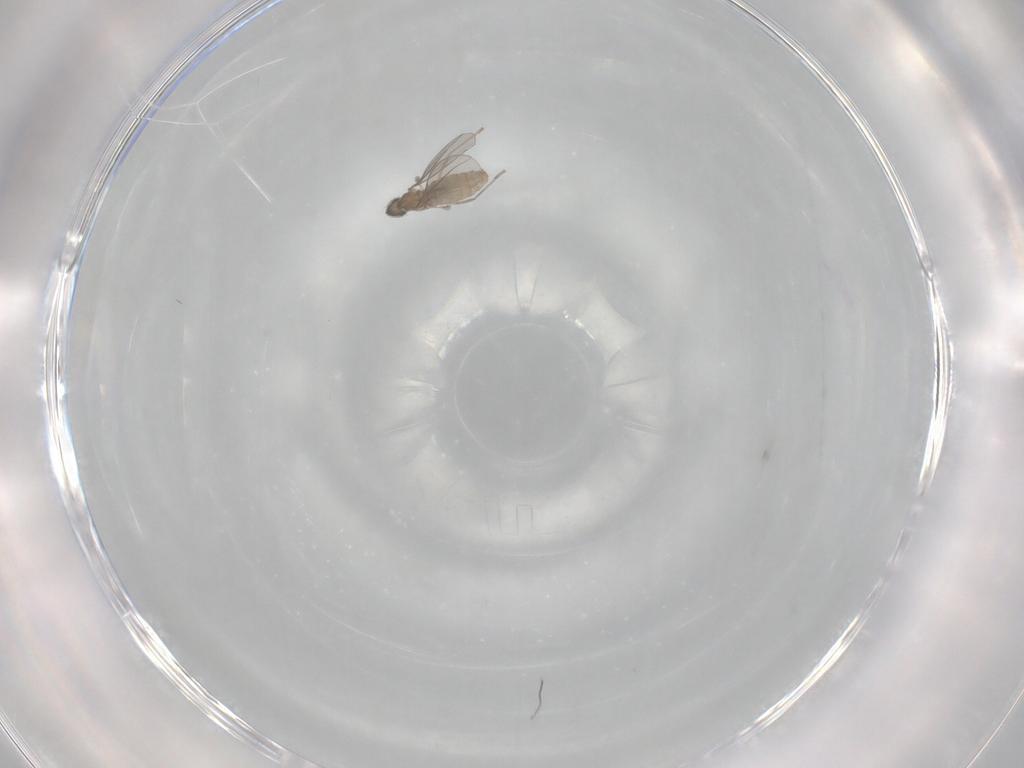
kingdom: Animalia
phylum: Arthropoda
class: Insecta
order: Diptera
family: Cecidomyiidae
